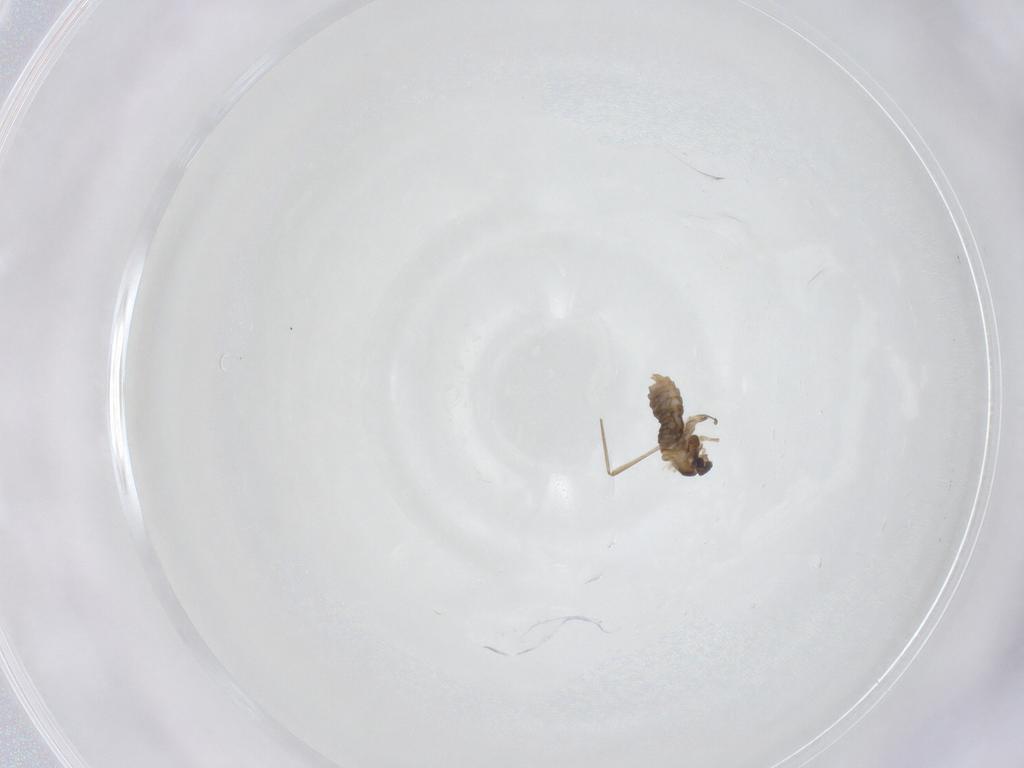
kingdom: Animalia
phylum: Arthropoda
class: Insecta
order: Diptera
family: Cecidomyiidae
